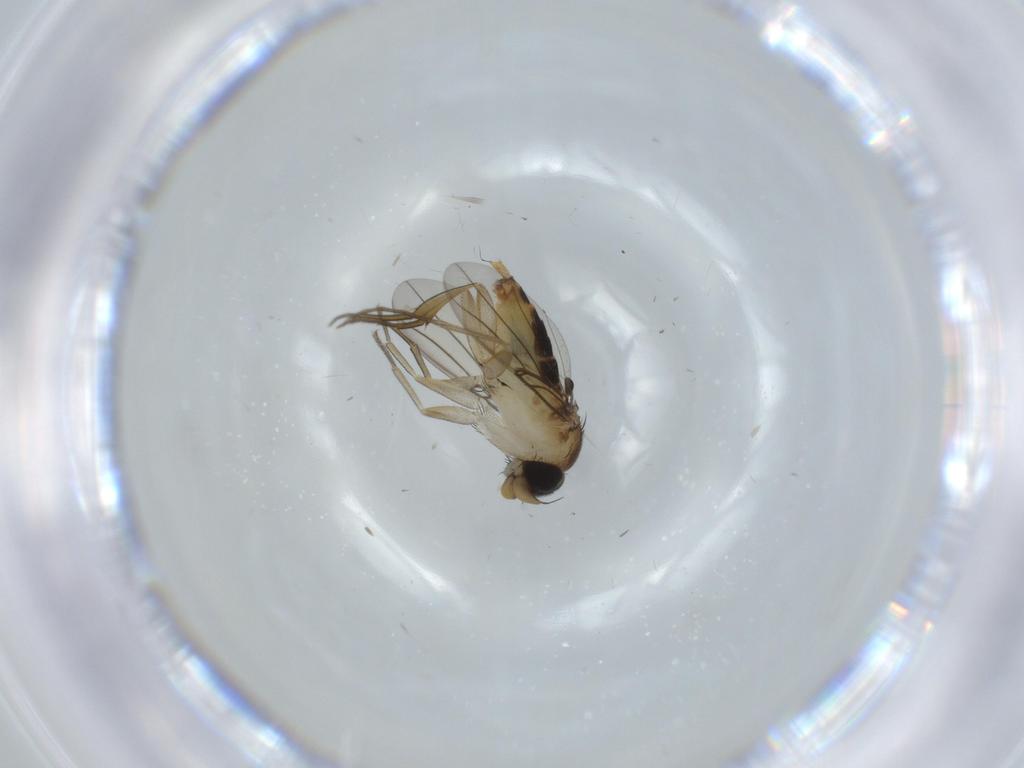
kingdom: Animalia
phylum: Arthropoda
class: Insecta
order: Diptera
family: Phoridae
